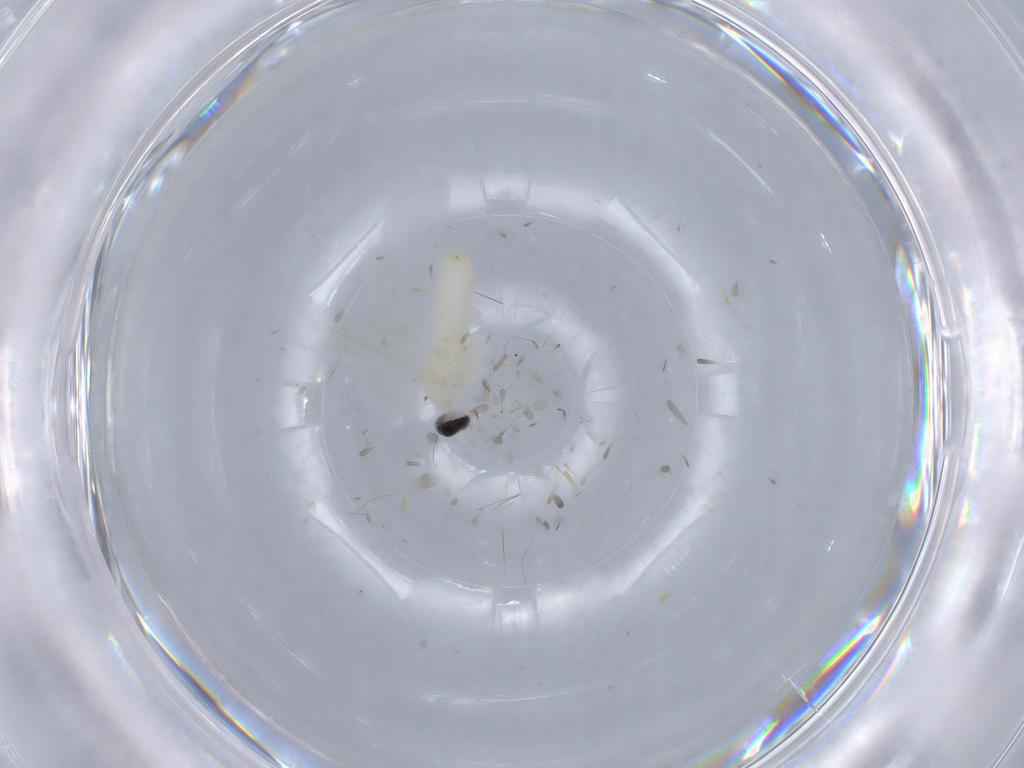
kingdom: Animalia
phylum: Arthropoda
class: Insecta
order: Diptera
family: Cecidomyiidae
